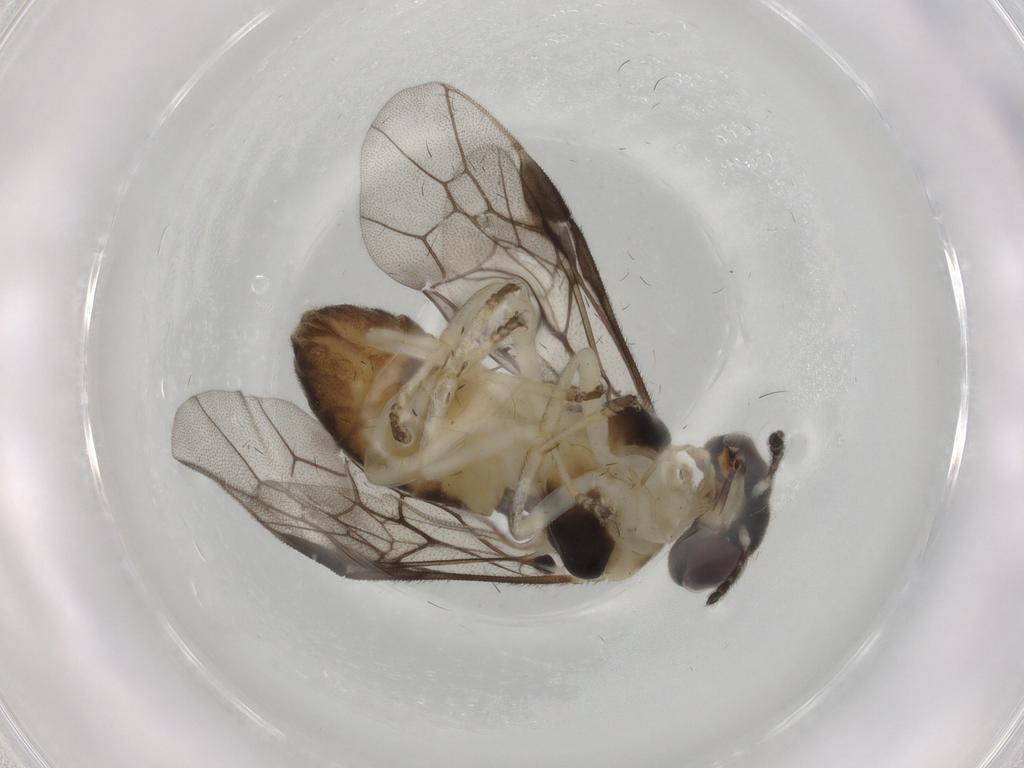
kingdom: Animalia
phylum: Arthropoda
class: Insecta
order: Hymenoptera
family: Pergidae
